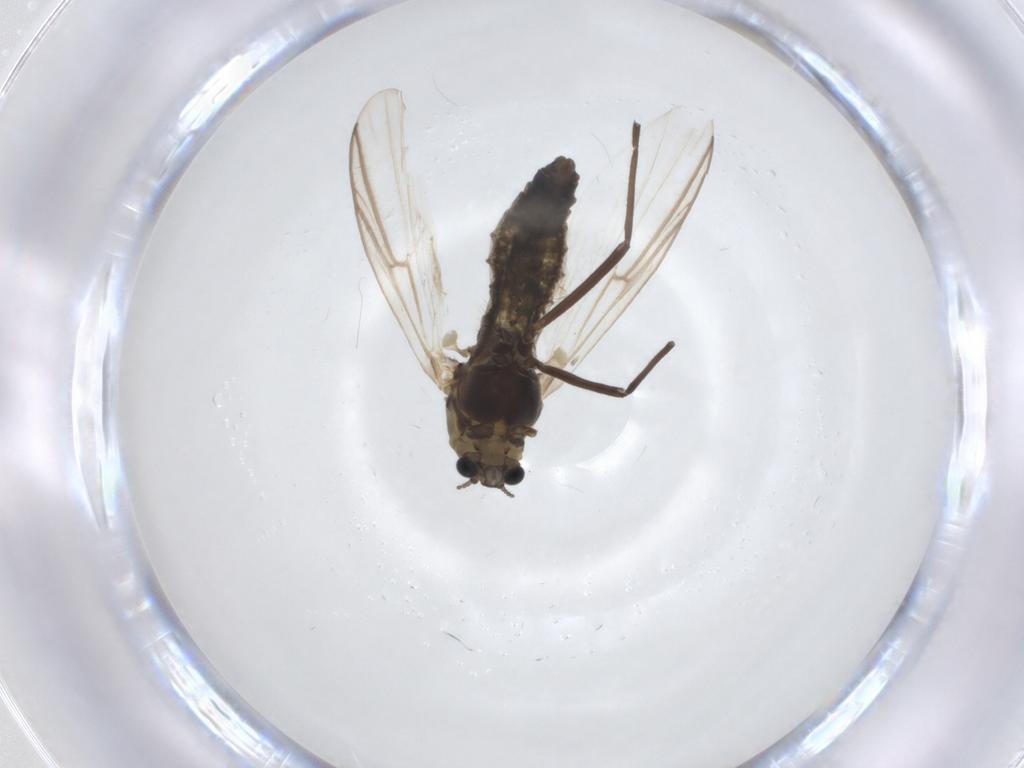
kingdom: Animalia
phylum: Arthropoda
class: Insecta
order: Diptera
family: Chironomidae
